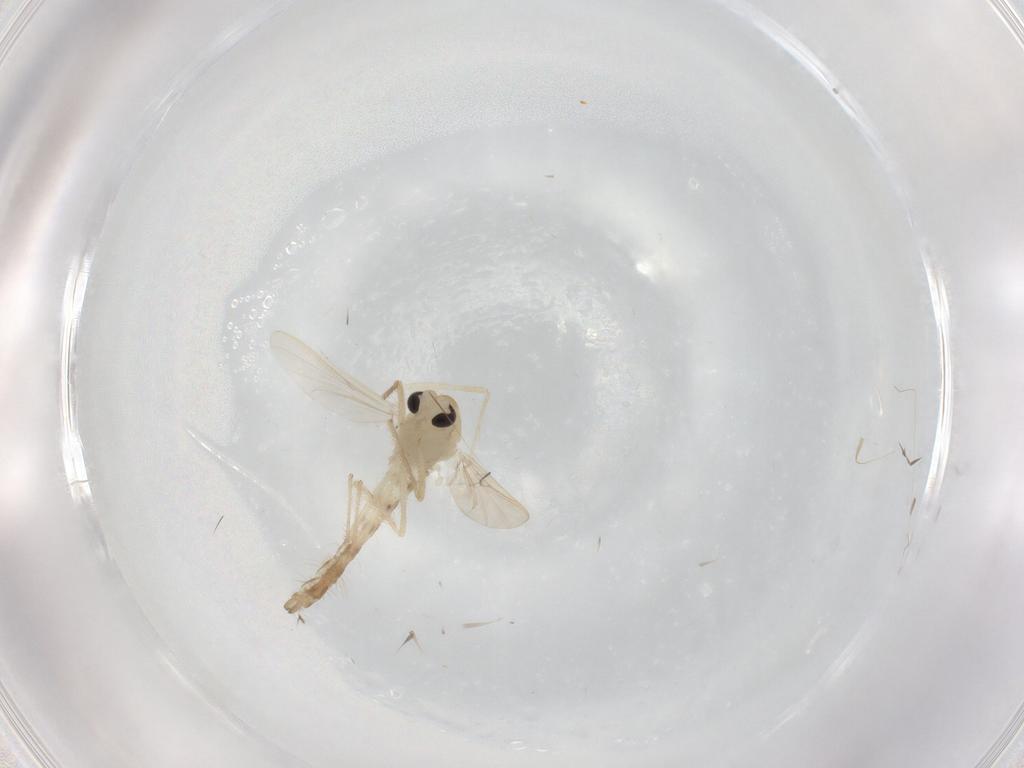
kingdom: Animalia
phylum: Arthropoda
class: Insecta
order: Diptera
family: Chironomidae
